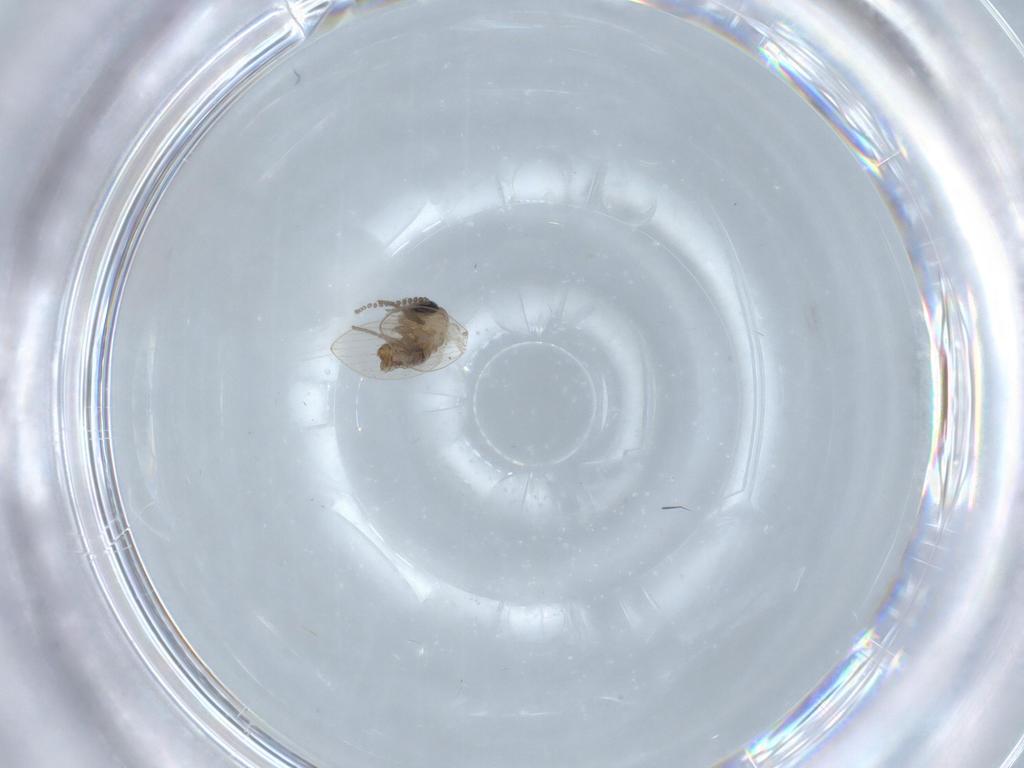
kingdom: Animalia
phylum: Arthropoda
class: Insecta
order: Diptera
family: Psychodidae
